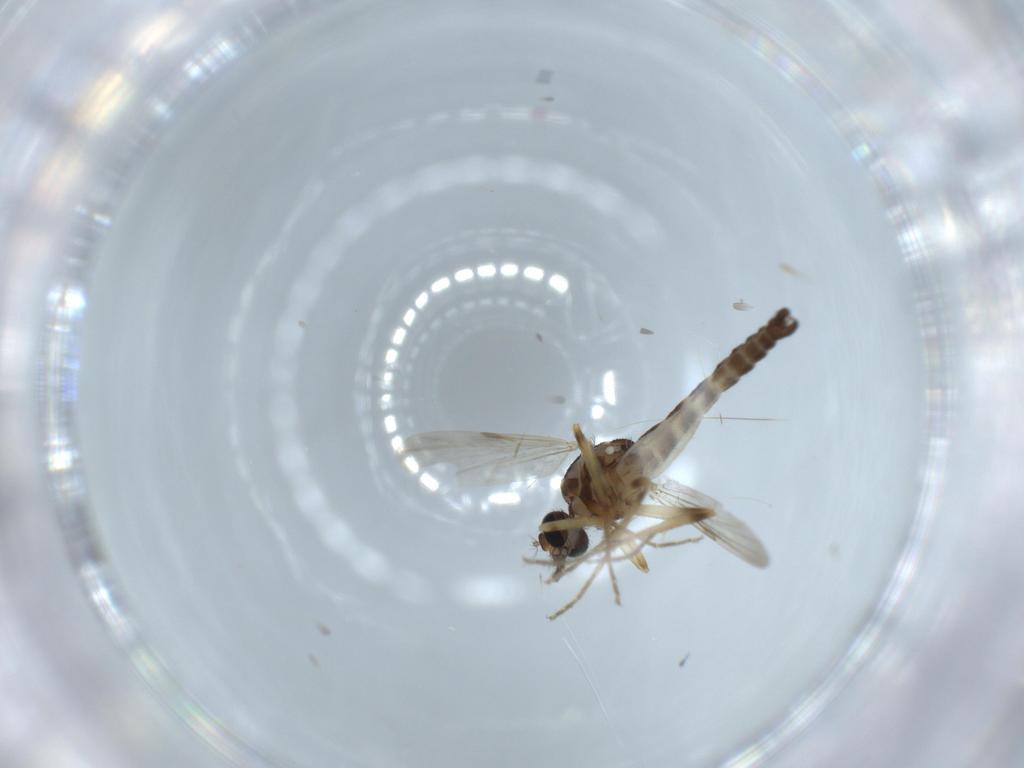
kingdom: Animalia
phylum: Arthropoda
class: Insecta
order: Diptera
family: Ceratopogonidae
